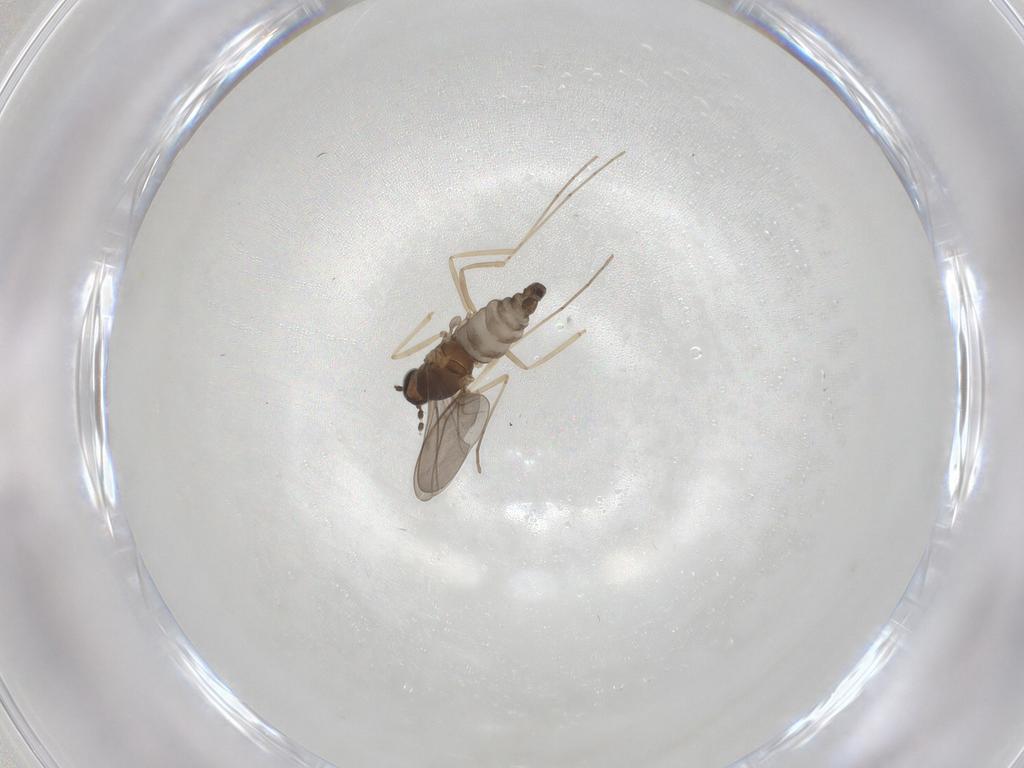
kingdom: Animalia
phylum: Arthropoda
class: Insecta
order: Diptera
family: Cecidomyiidae
